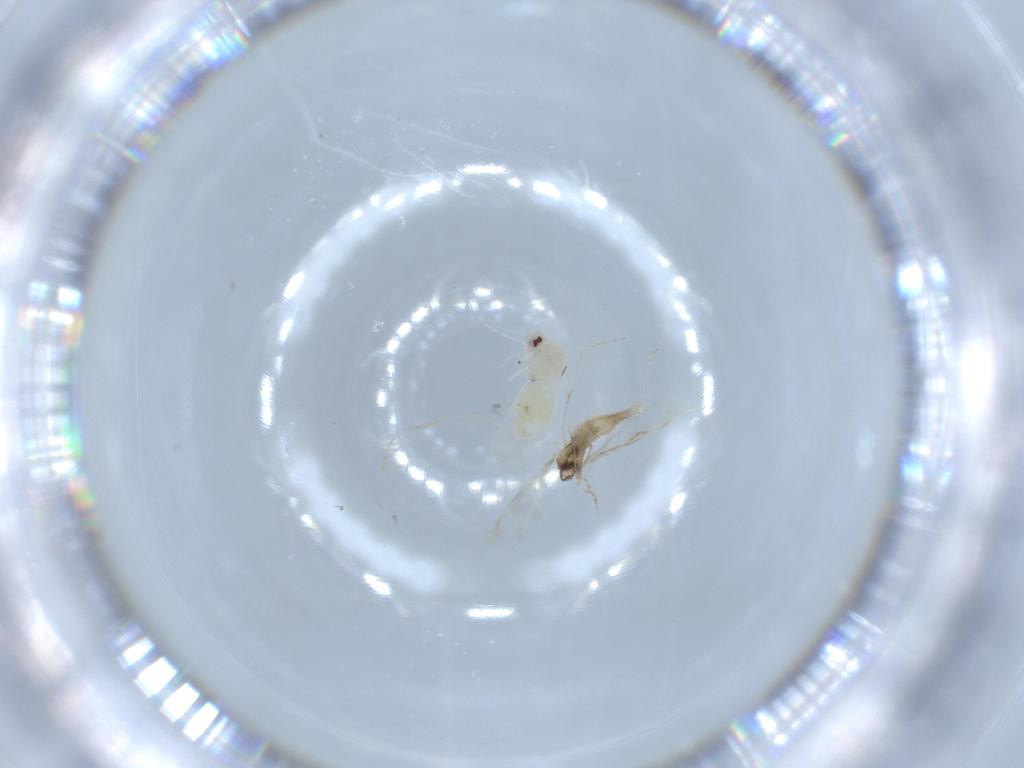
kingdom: Animalia
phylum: Arthropoda
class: Insecta
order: Diptera
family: Cecidomyiidae
